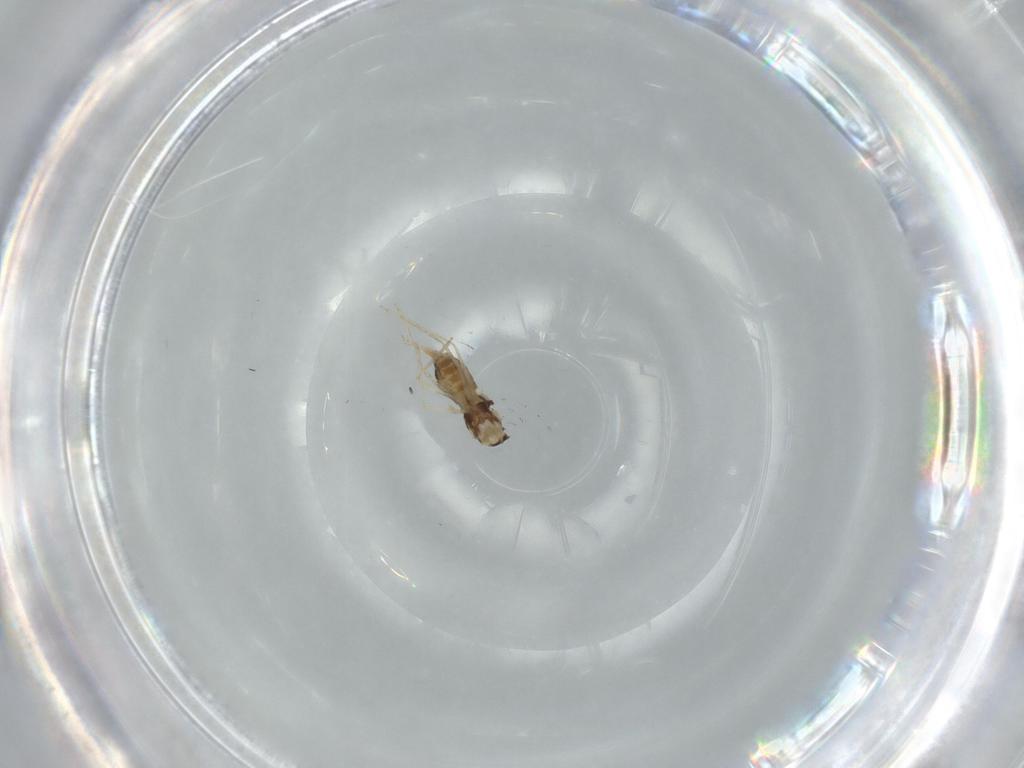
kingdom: Animalia
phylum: Arthropoda
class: Insecta
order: Diptera
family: Cecidomyiidae
